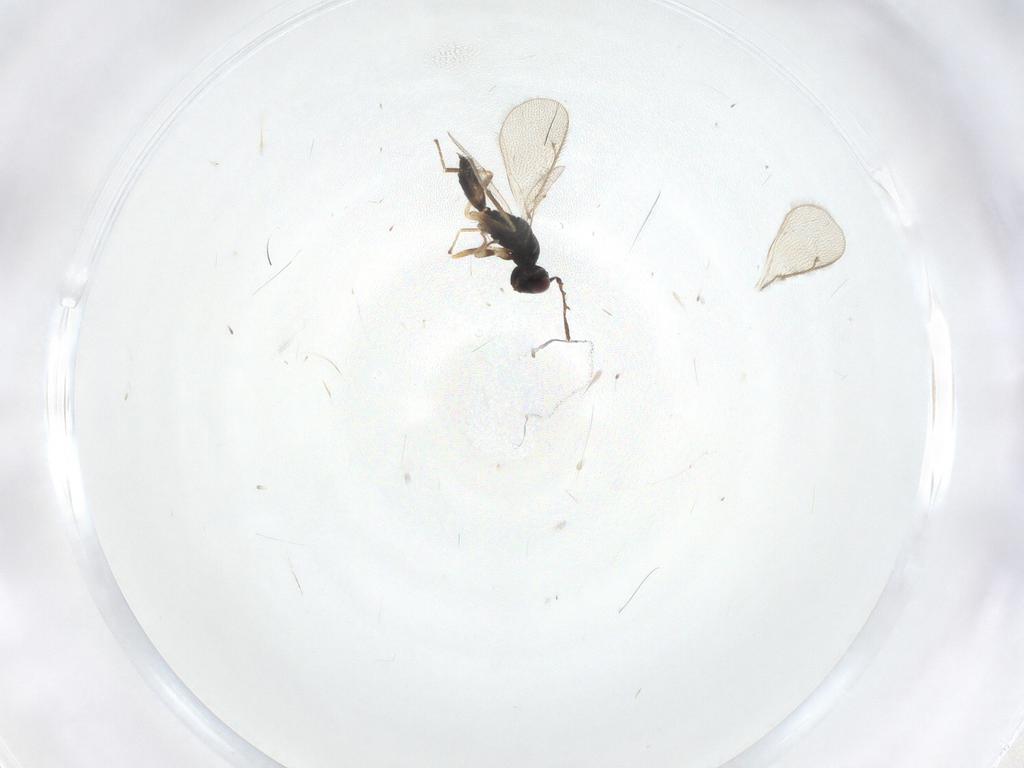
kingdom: Animalia
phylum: Arthropoda
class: Insecta
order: Hymenoptera
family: Eulophidae
